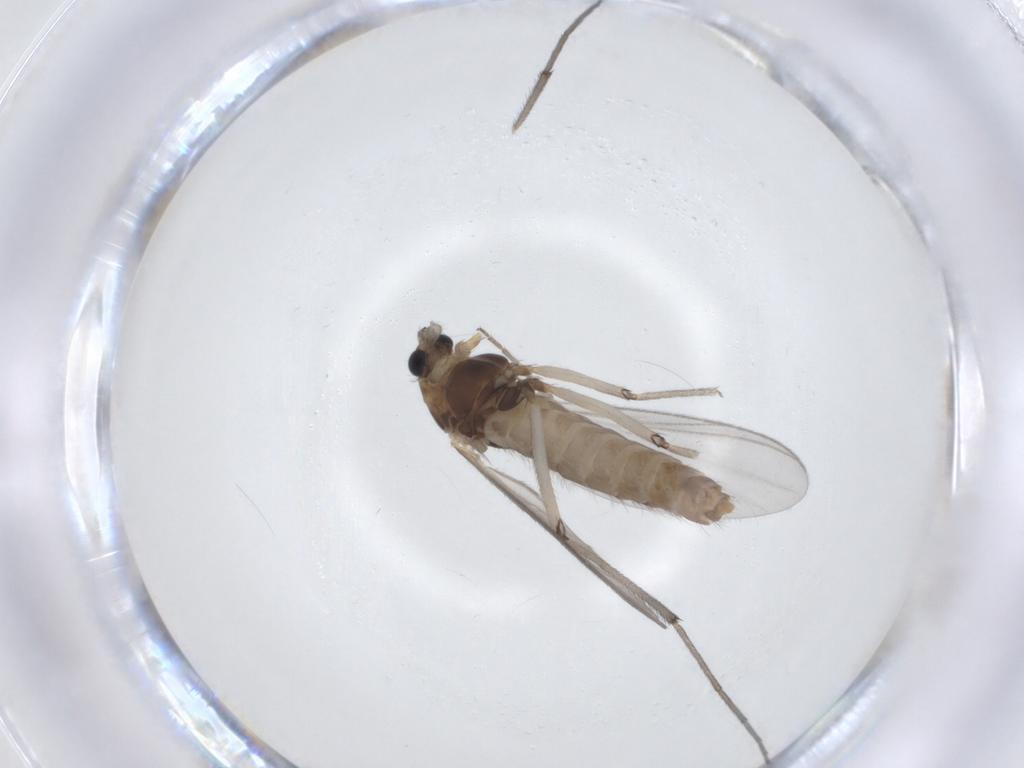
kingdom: Animalia
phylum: Arthropoda
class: Insecta
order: Diptera
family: Chironomidae
